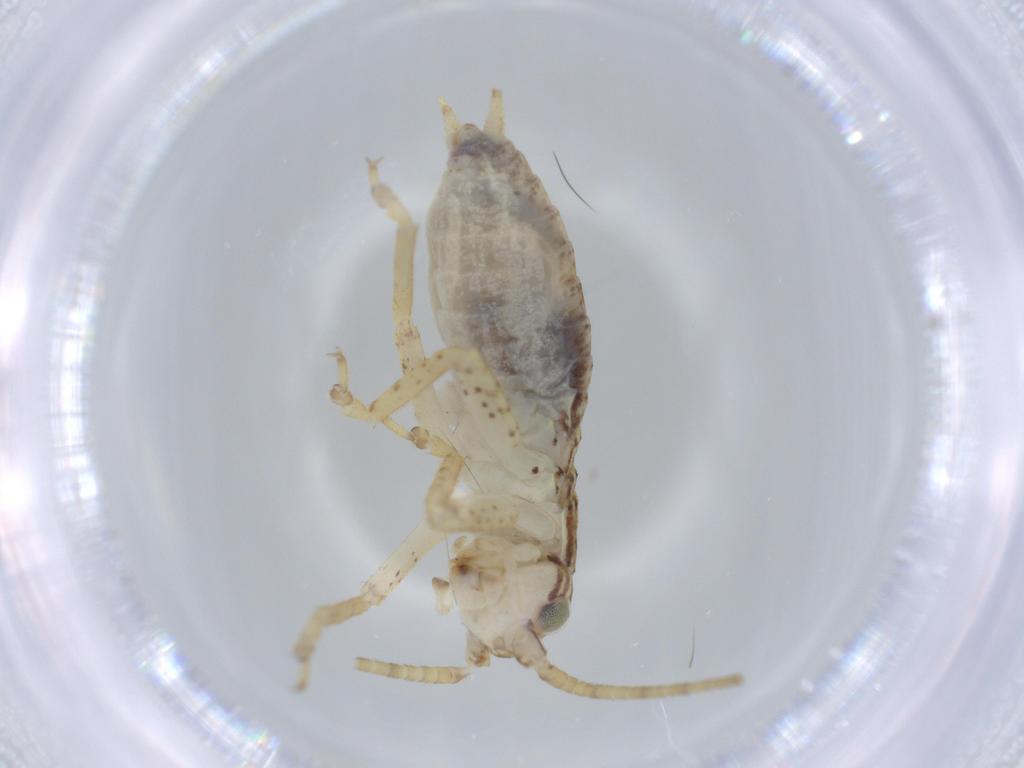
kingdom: Animalia
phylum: Arthropoda
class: Insecta
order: Orthoptera
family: Gryllidae
